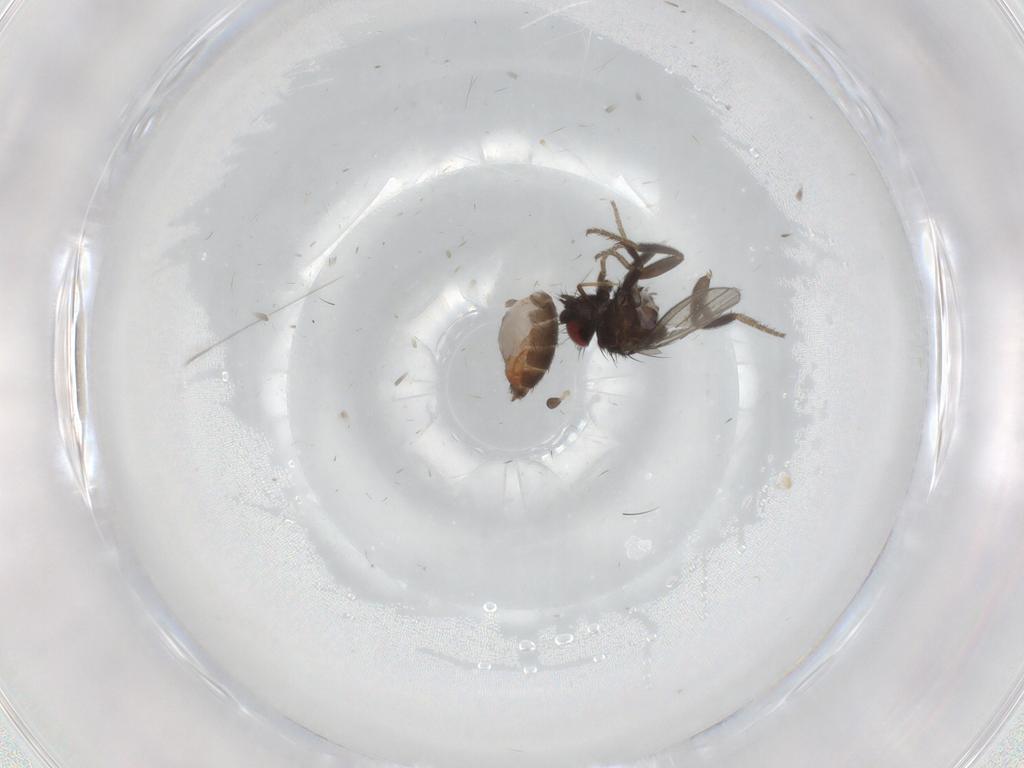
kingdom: Animalia
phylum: Arthropoda
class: Insecta
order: Diptera
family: Milichiidae
